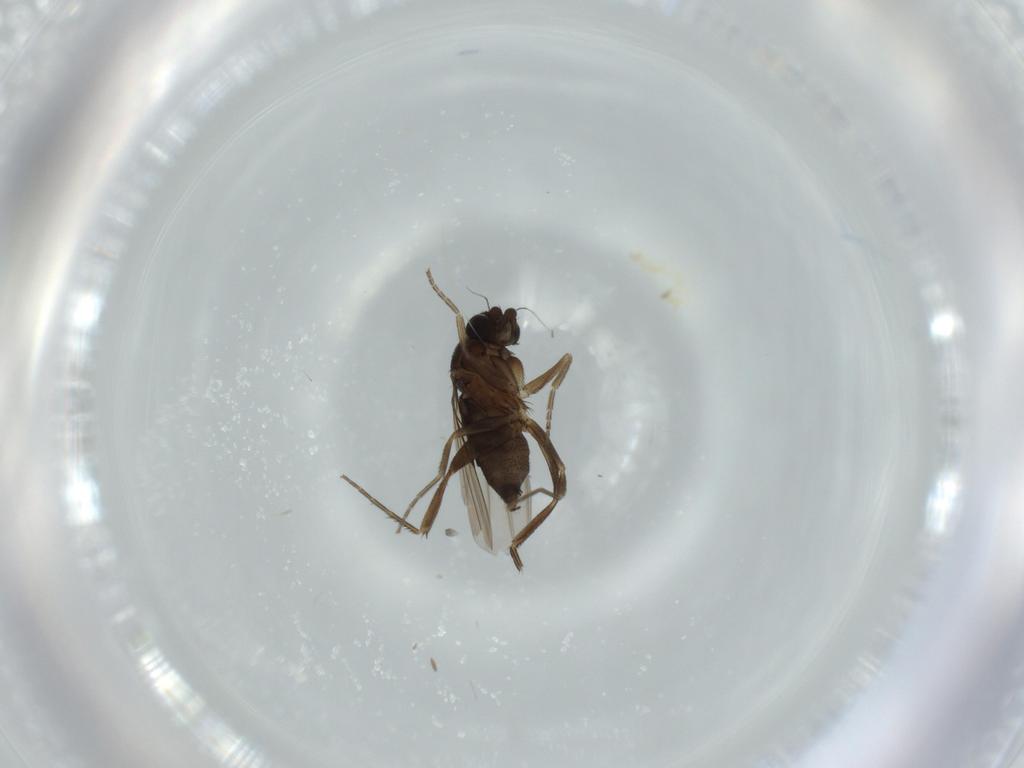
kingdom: Animalia
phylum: Arthropoda
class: Insecta
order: Diptera
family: Phoridae
